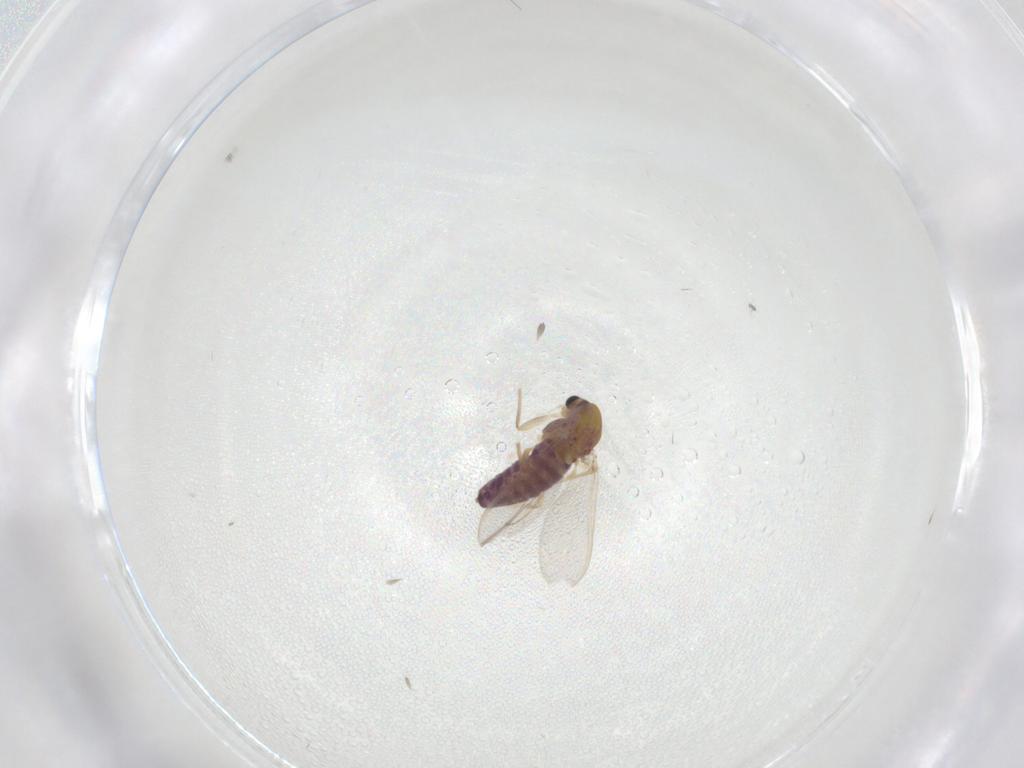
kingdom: Animalia
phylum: Arthropoda
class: Insecta
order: Diptera
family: Chironomidae
